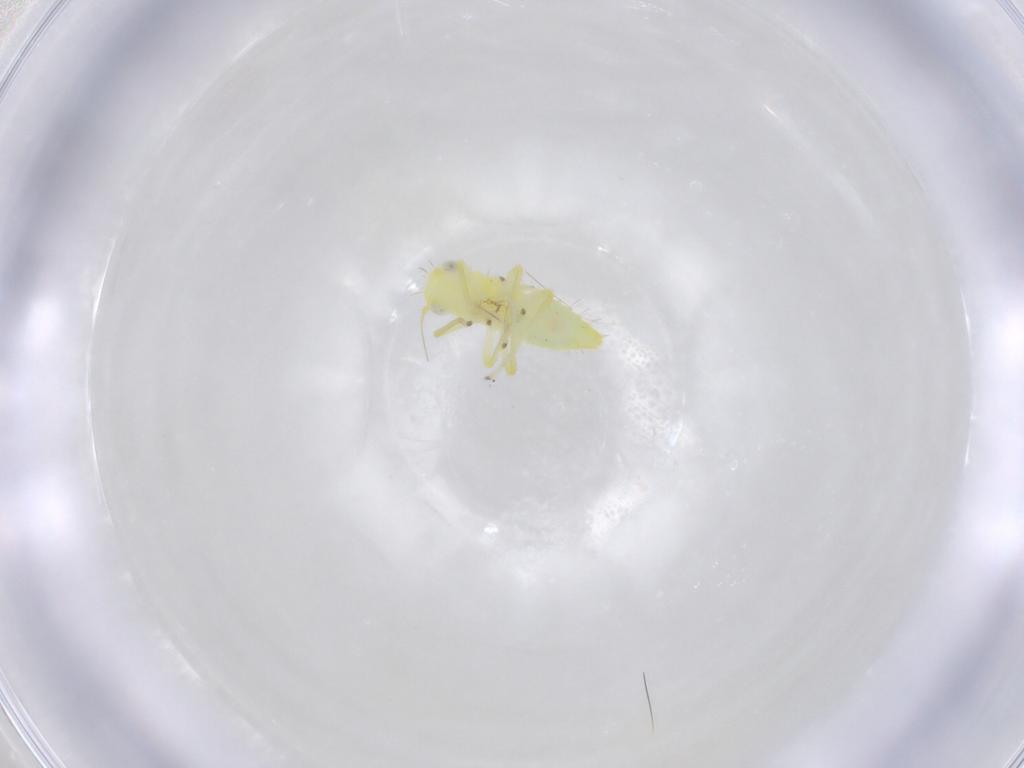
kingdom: Animalia
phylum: Arthropoda
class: Insecta
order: Hemiptera
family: Cicadellidae
